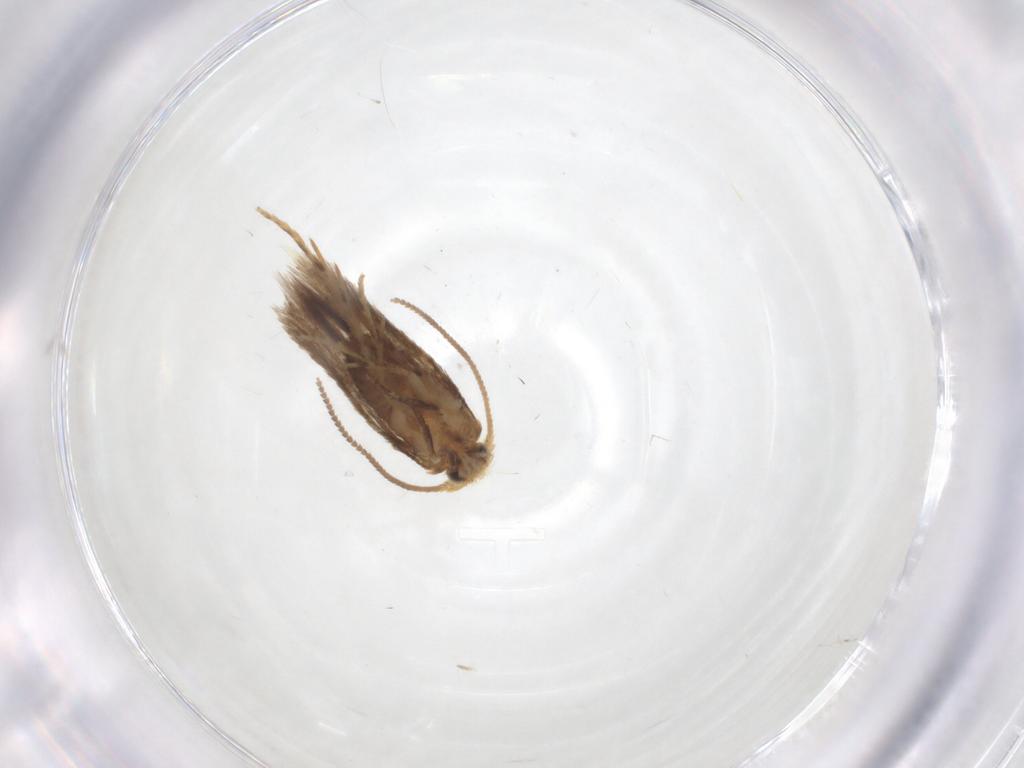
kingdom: Animalia
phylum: Arthropoda
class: Insecta
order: Lepidoptera
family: Nepticulidae
